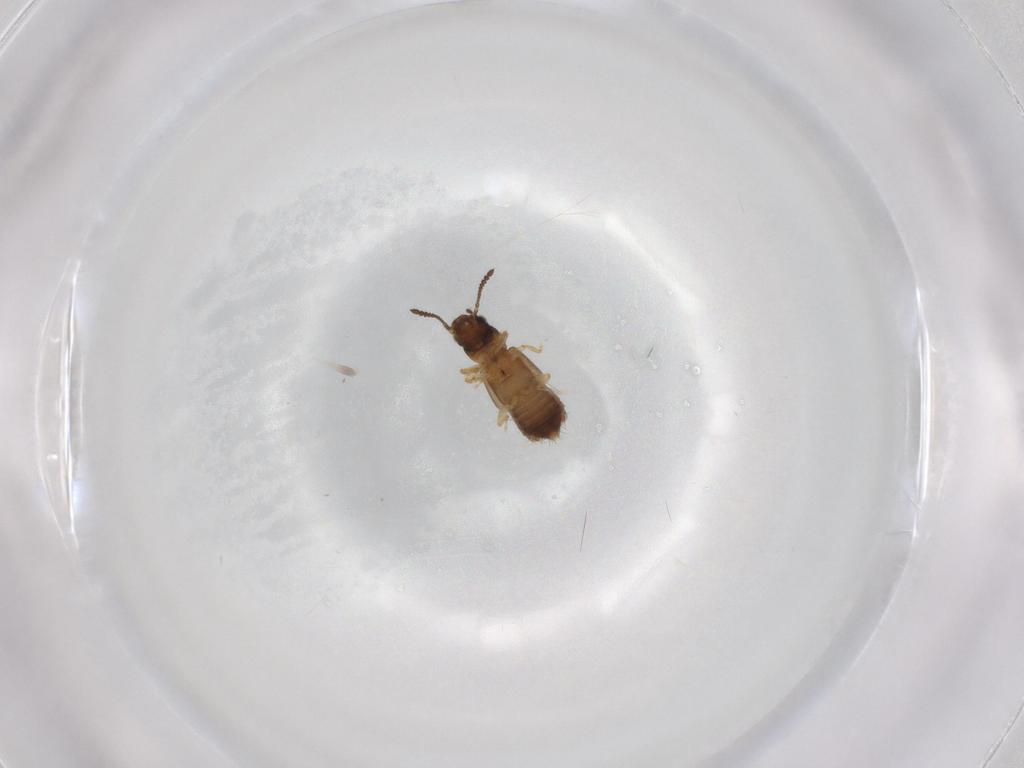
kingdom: Animalia
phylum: Arthropoda
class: Insecta
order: Coleoptera
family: Staphylinidae
